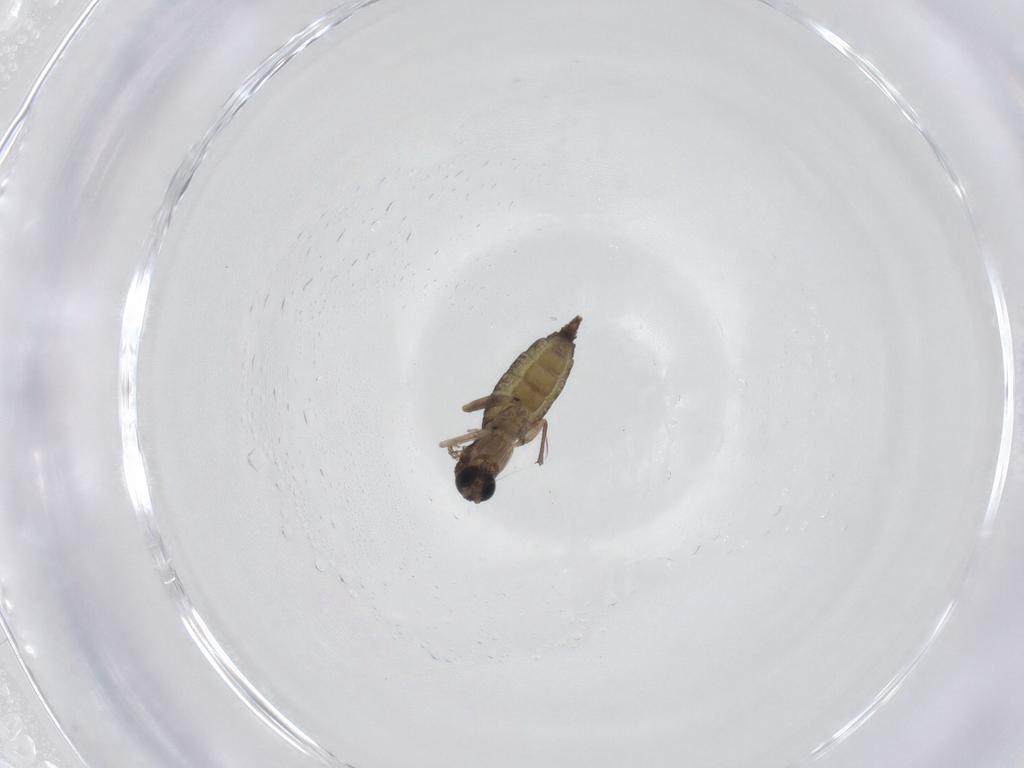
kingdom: Animalia
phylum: Arthropoda
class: Insecta
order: Diptera
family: Sciaridae
